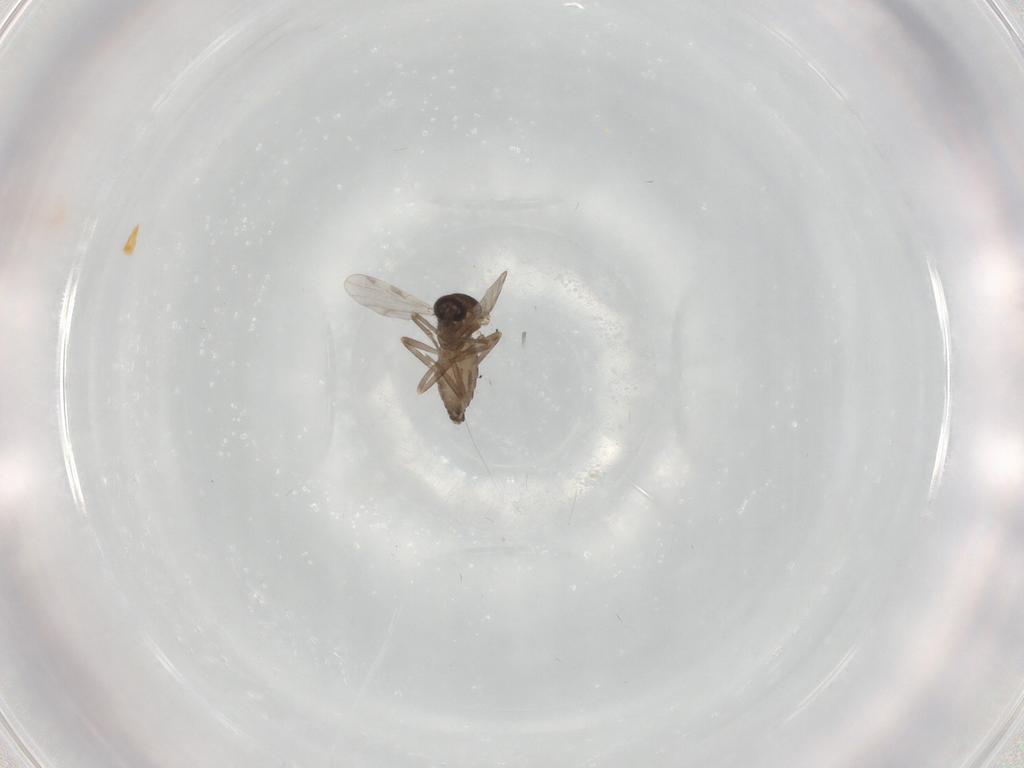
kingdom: Animalia
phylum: Arthropoda
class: Insecta
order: Diptera
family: Ceratopogonidae
